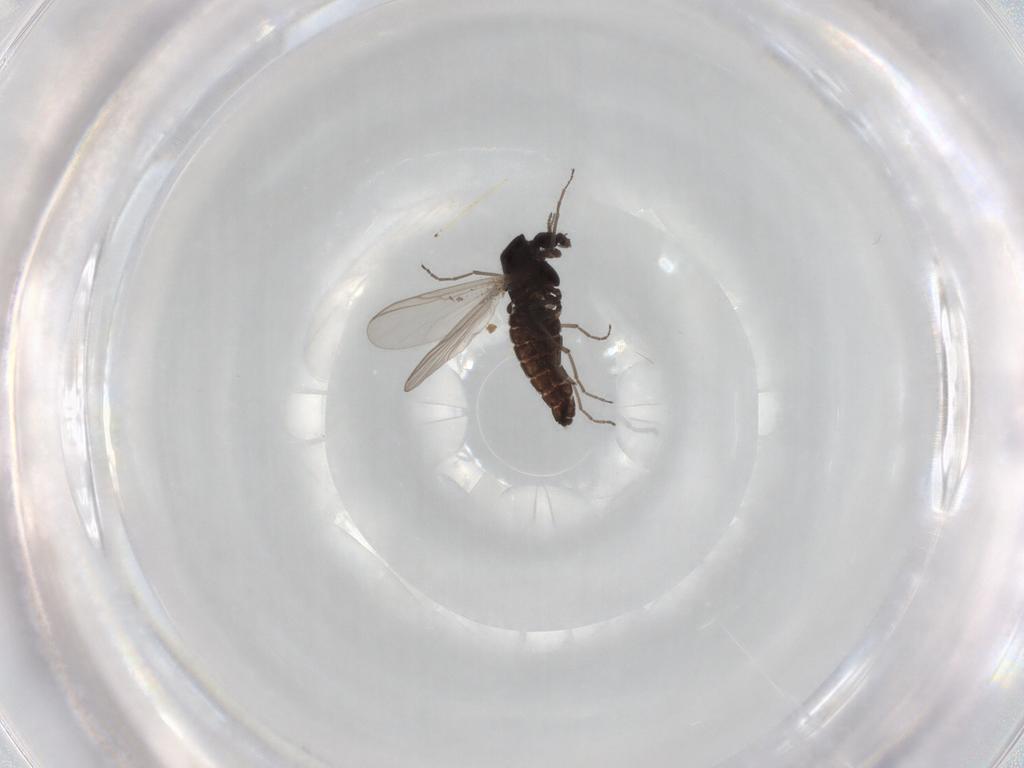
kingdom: Animalia
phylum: Arthropoda
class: Insecta
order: Diptera
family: Chironomidae
